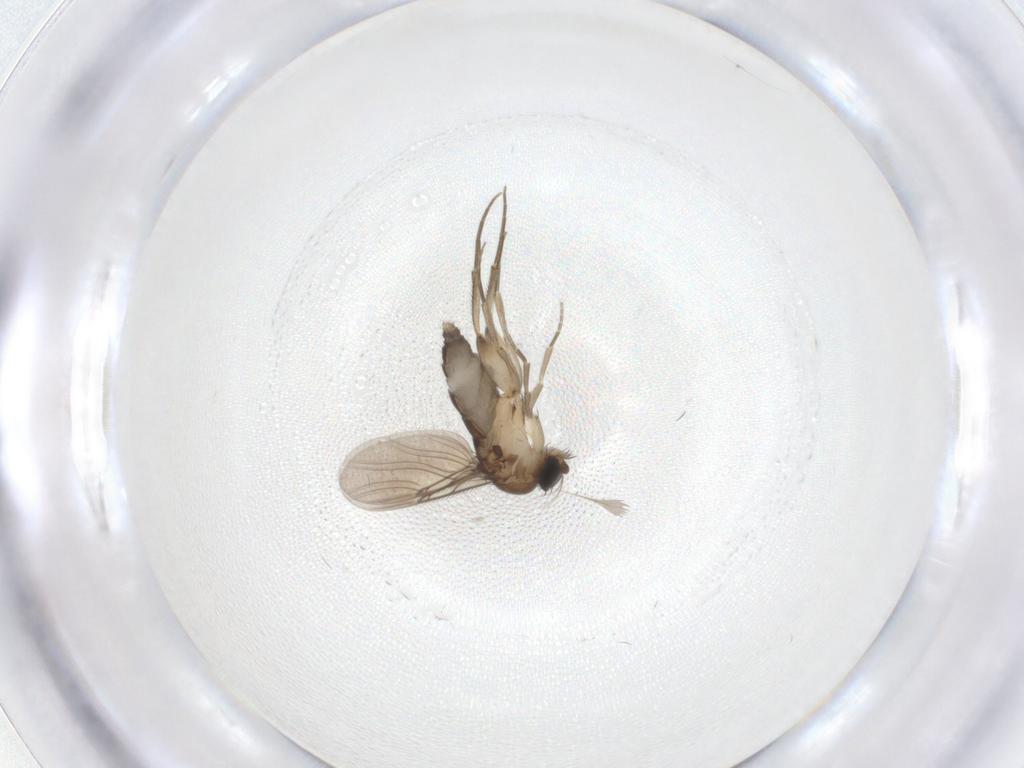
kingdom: Animalia
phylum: Arthropoda
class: Insecta
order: Diptera
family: Phoridae
